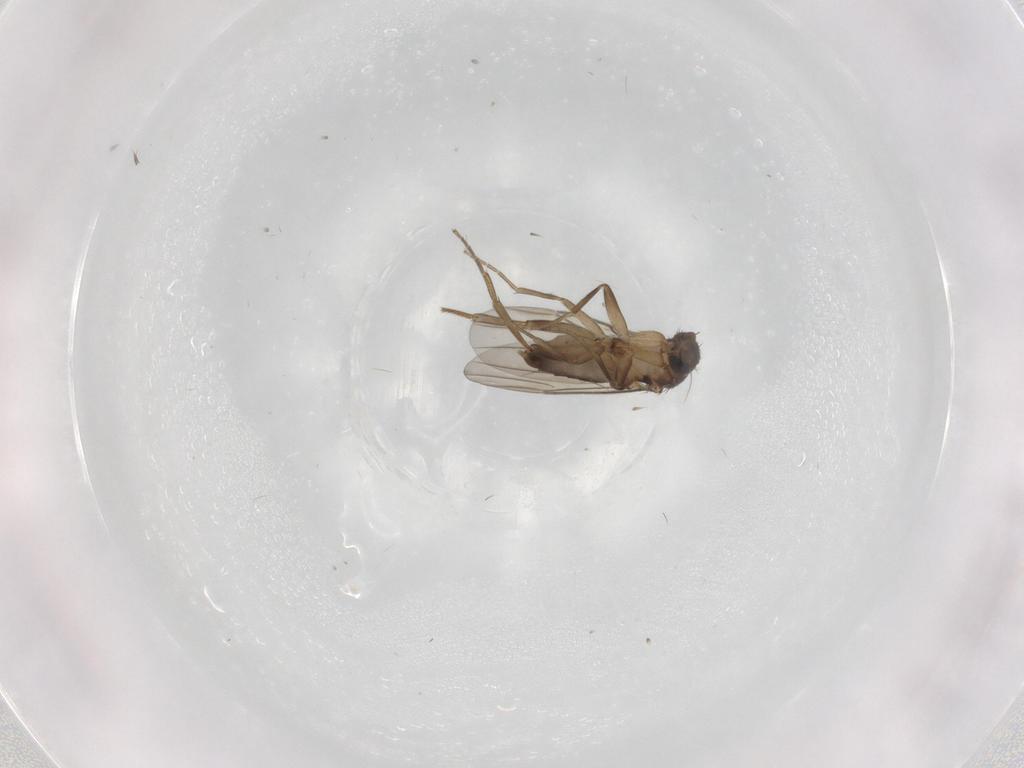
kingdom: Animalia
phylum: Arthropoda
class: Insecta
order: Diptera
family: Phoridae
